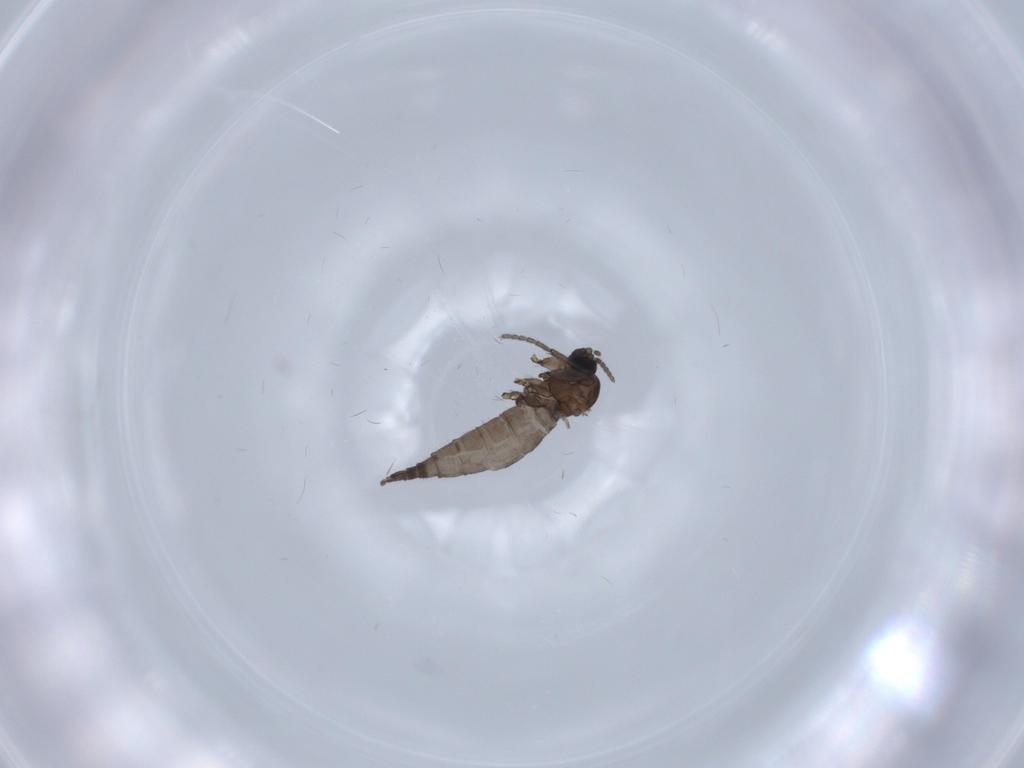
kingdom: Animalia
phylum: Arthropoda
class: Insecta
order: Diptera
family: Sciaridae
